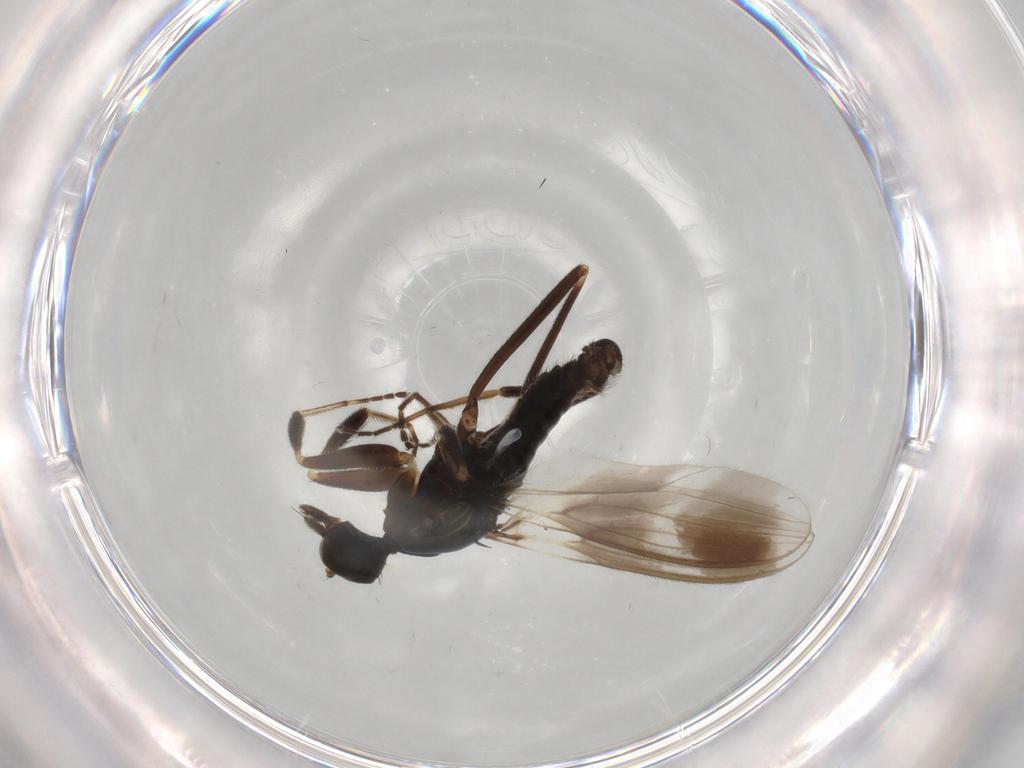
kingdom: Animalia
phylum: Arthropoda
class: Insecta
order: Diptera
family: Hybotidae
